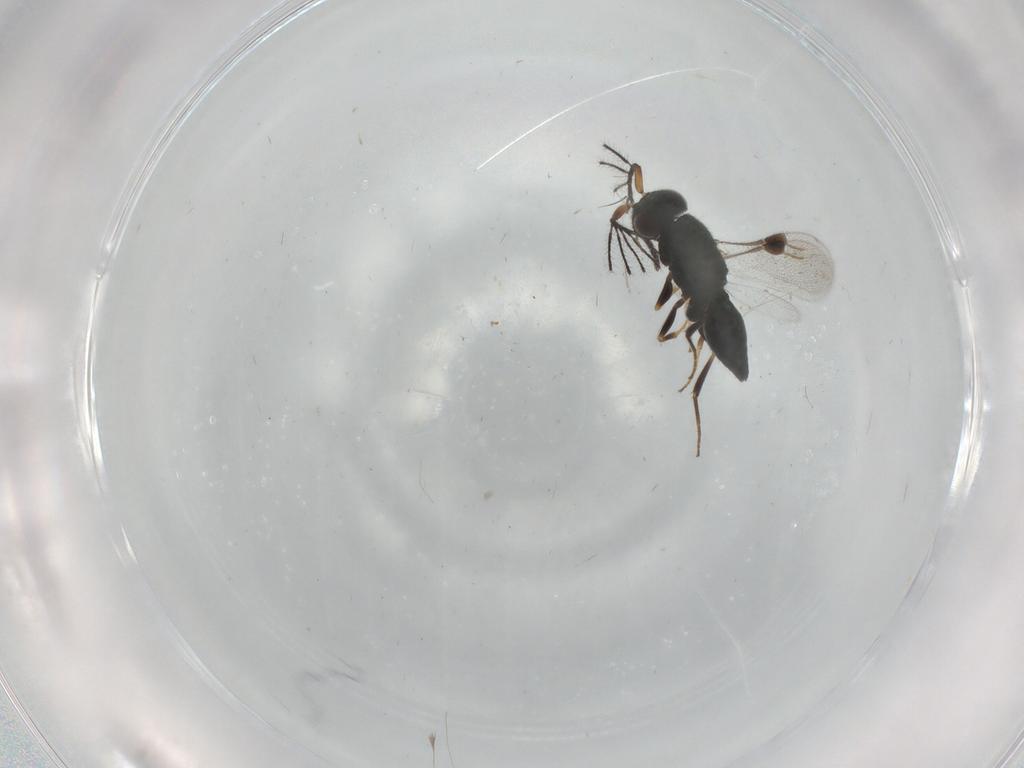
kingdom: Animalia
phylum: Arthropoda
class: Insecta
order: Hymenoptera
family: Megaspilidae
